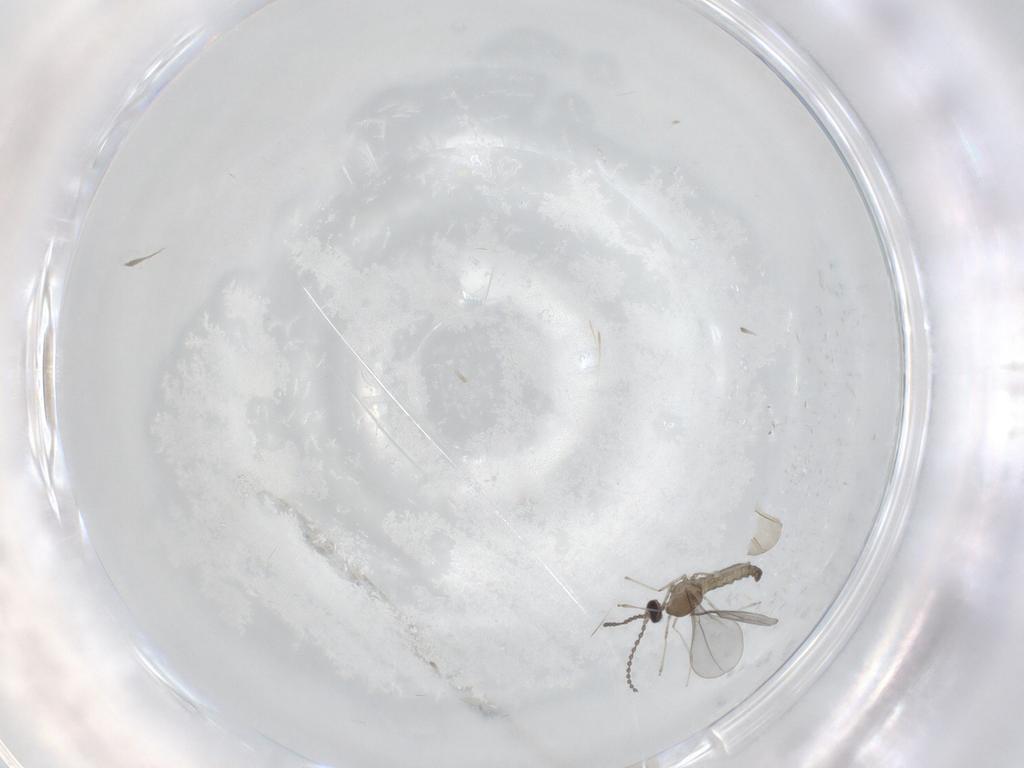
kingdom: Animalia
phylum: Arthropoda
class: Insecta
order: Diptera
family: Cecidomyiidae
